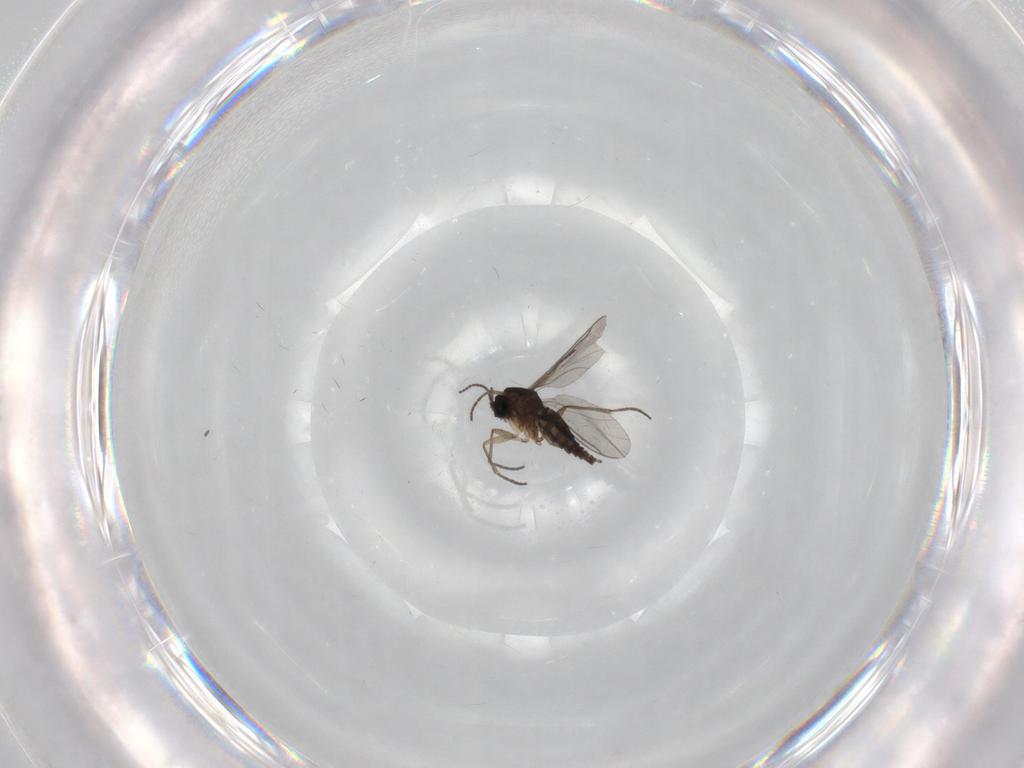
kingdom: Animalia
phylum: Arthropoda
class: Insecta
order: Diptera
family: Sciaridae
